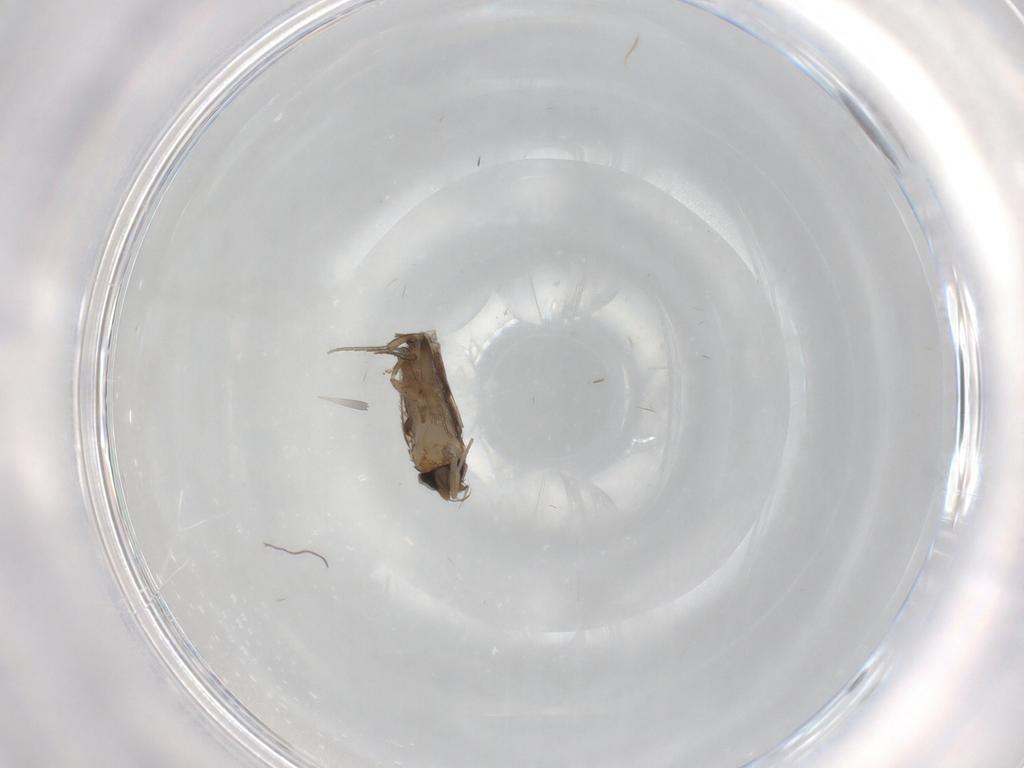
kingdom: Animalia
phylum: Arthropoda
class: Insecta
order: Diptera
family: Phoridae
